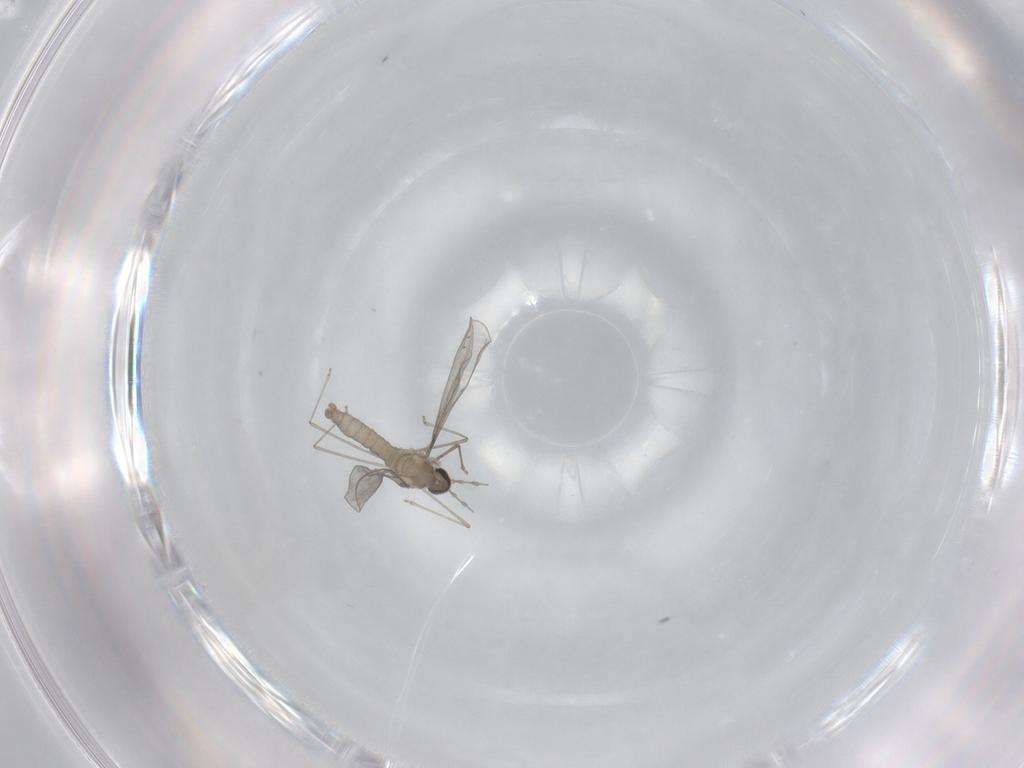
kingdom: Animalia
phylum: Arthropoda
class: Insecta
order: Diptera
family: Cecidomyiidae
